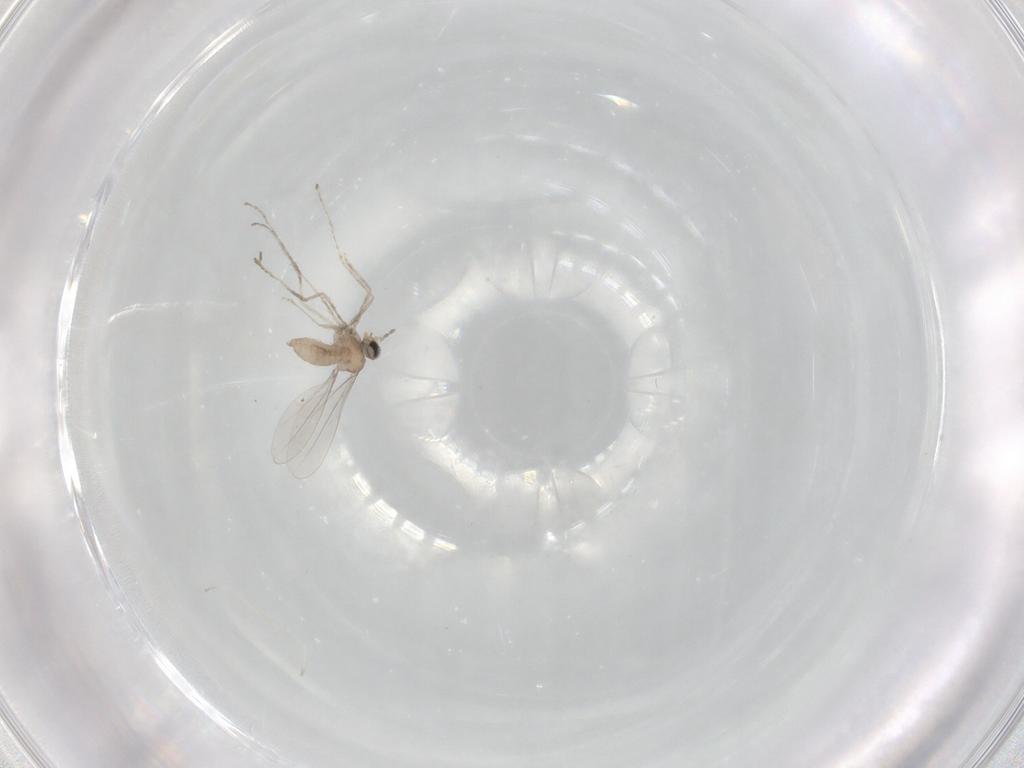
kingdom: Animalia
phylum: Arthropoda
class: Insecta
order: Diptera
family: Cecidomyiidae
